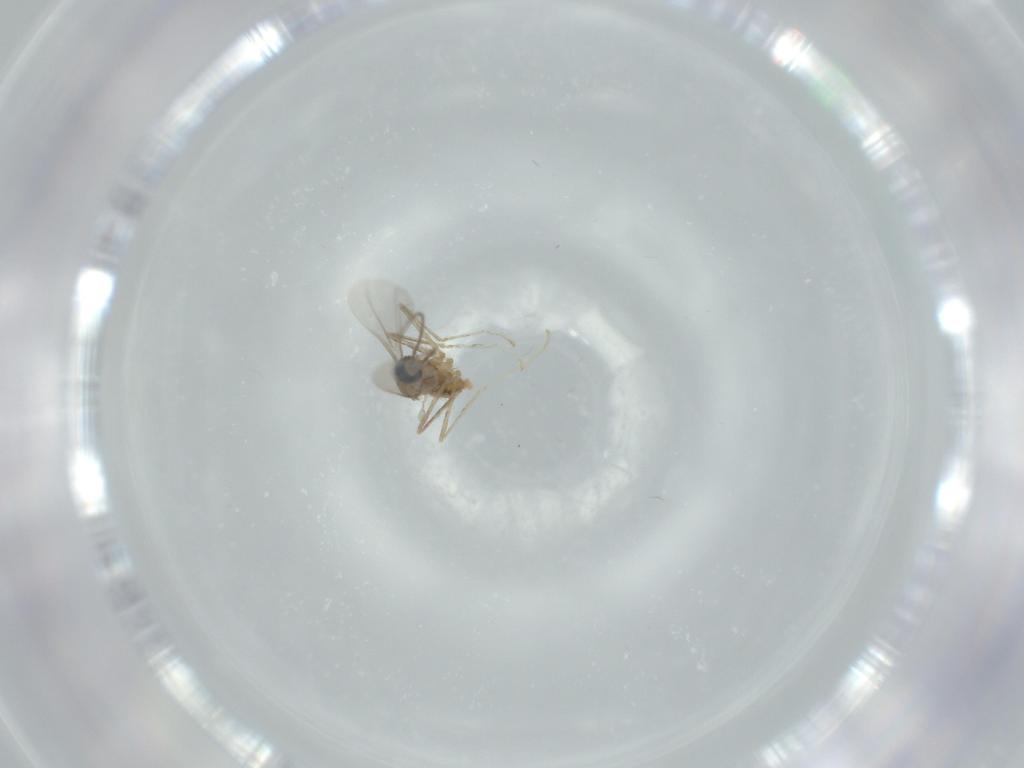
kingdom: Animalia
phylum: Arthropoda
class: Insecta
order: Diptera
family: Cecidomyiidae
